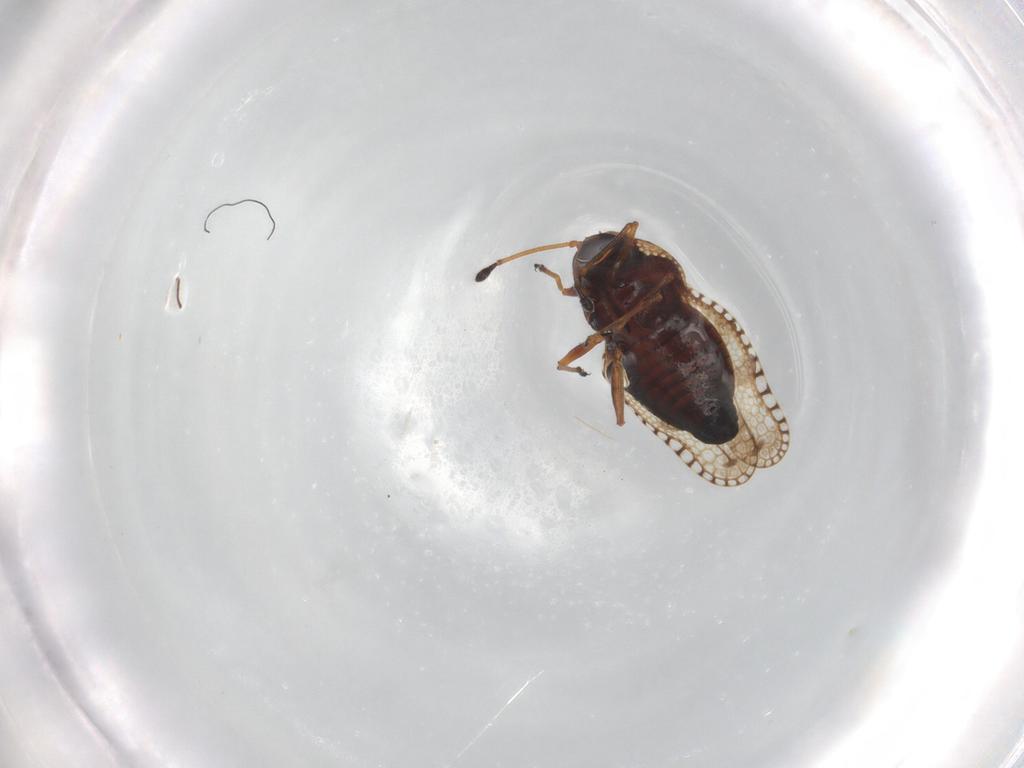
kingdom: Animalia
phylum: Arthropoda
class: Insecta
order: Hemiptera
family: Tingidae
